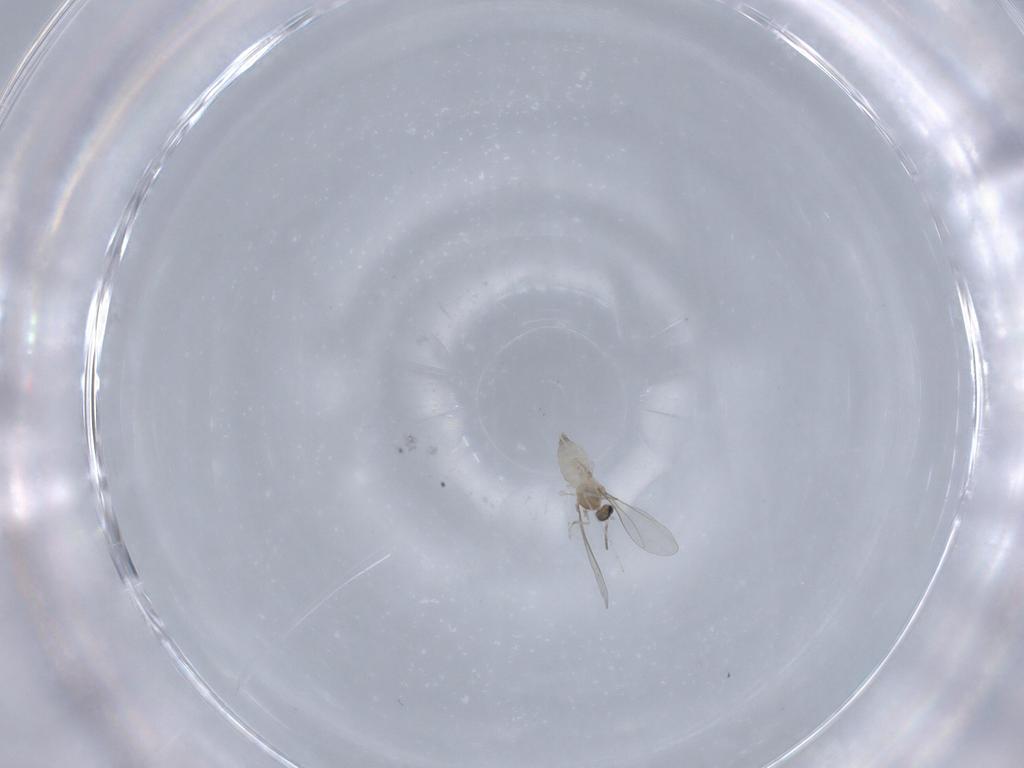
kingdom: Animalia
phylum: Arthropoda
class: Insecta
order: Diptera
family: Cecidomyiidae
